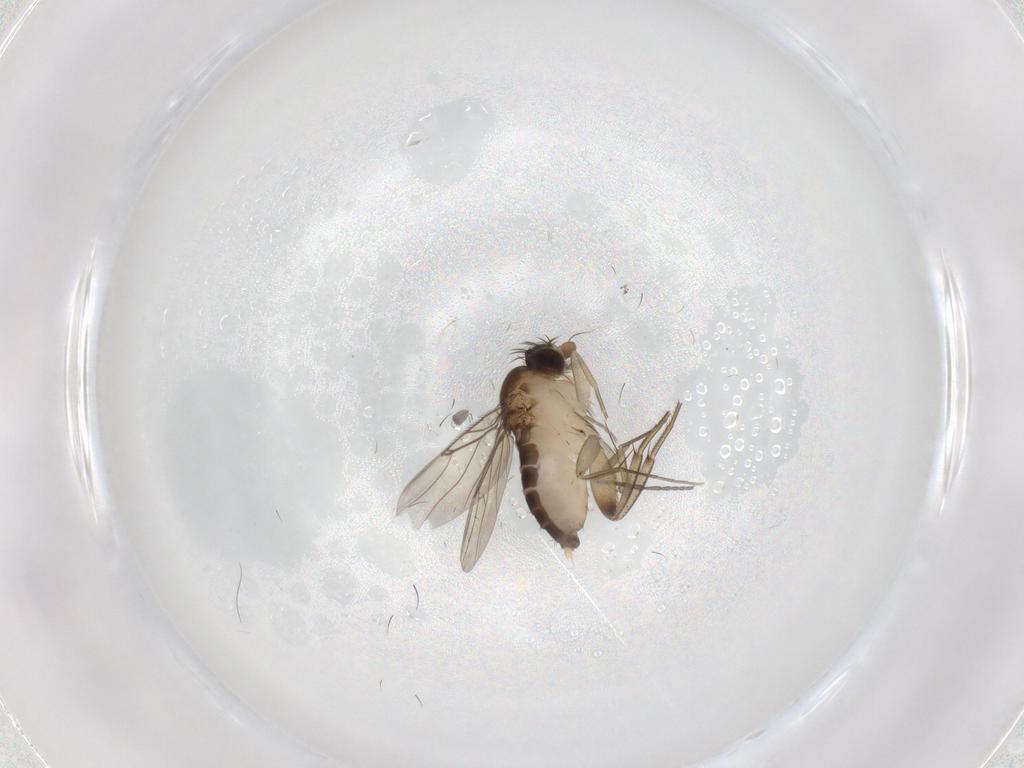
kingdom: Animalia
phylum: Arthropoda
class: Insecta
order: Diptera
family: Phoridae
